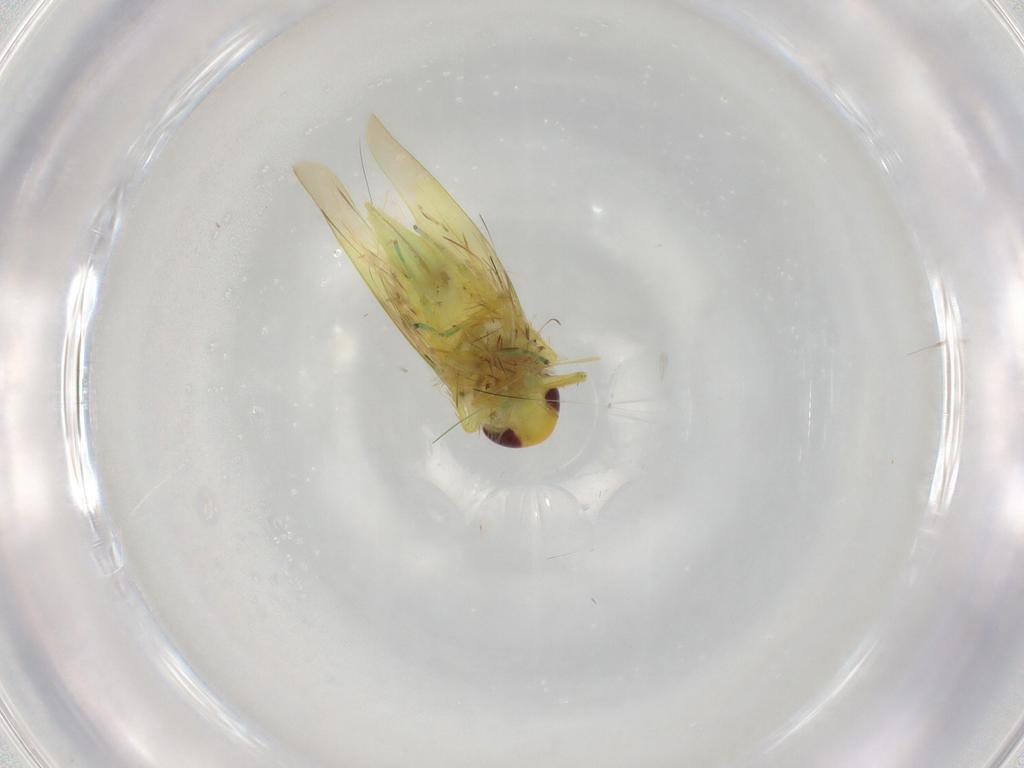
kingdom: Animalia
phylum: Arthropoda
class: Insecta
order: Hemiptera
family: Cicadellidae
